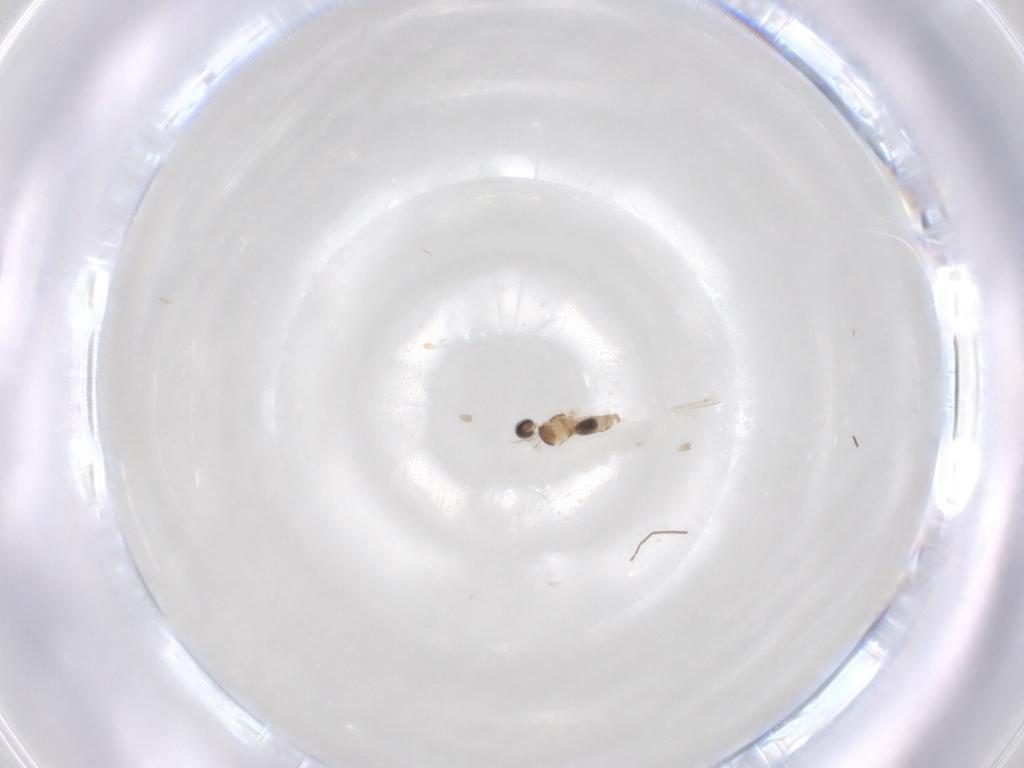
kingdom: Animalia
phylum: Arthropoda
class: Insecta
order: Diptera
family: Cecidomyiidae
